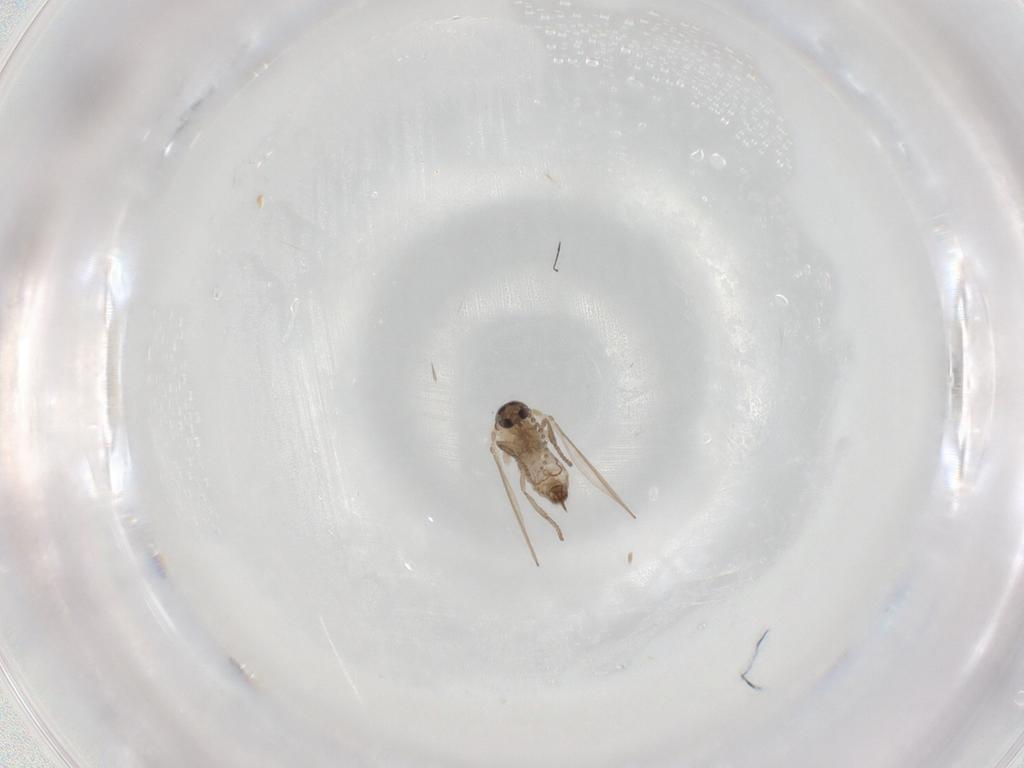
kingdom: Animalia
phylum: Arthropoda
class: Insecta
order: Diptera
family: Psychodidae
